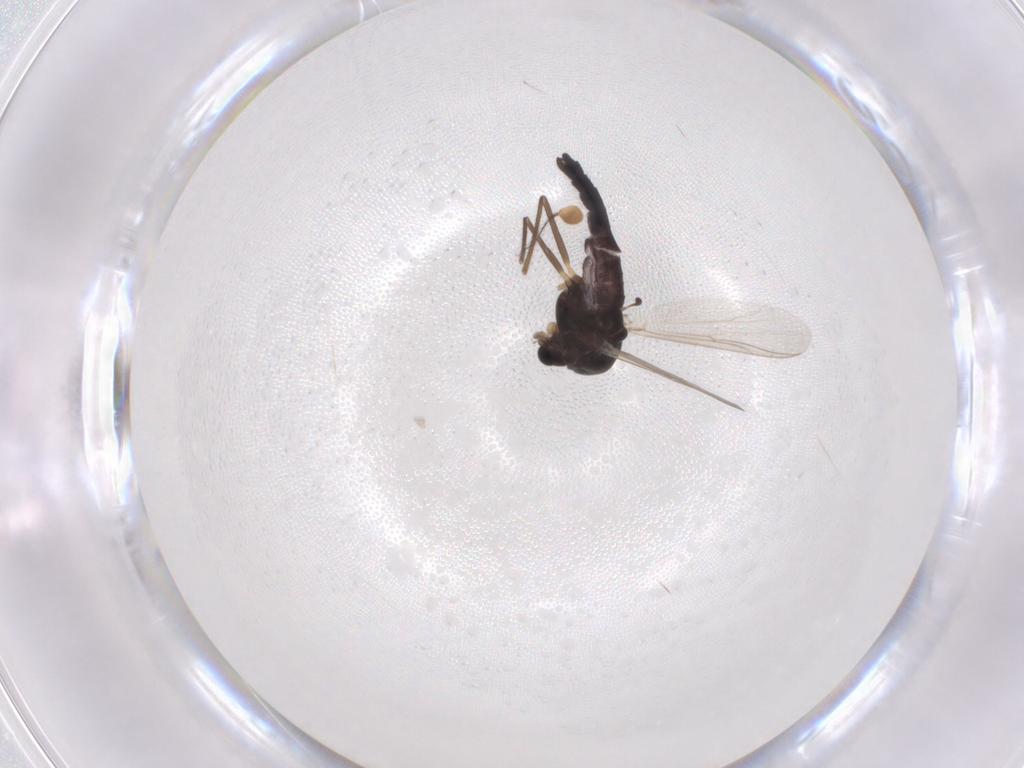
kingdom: Animalia
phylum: Arthropoda
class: Insecta
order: Diptera
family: Chironomidae
